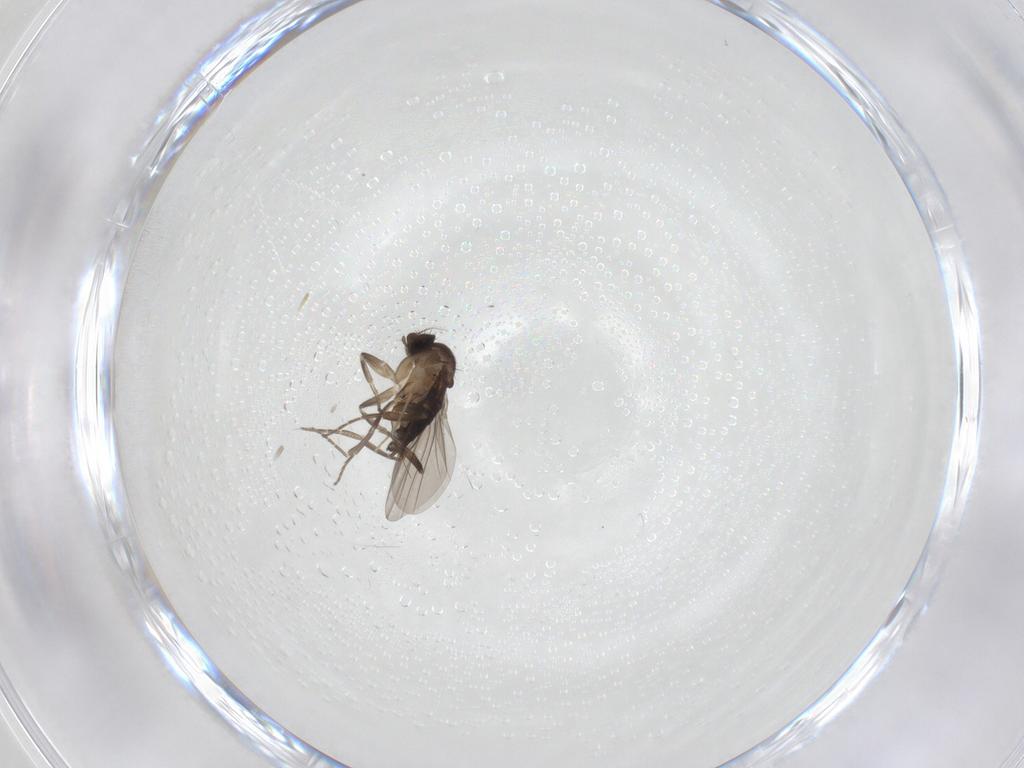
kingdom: Animalia
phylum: Arthropoda
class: Insecta
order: Diptera
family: Chironomidae
